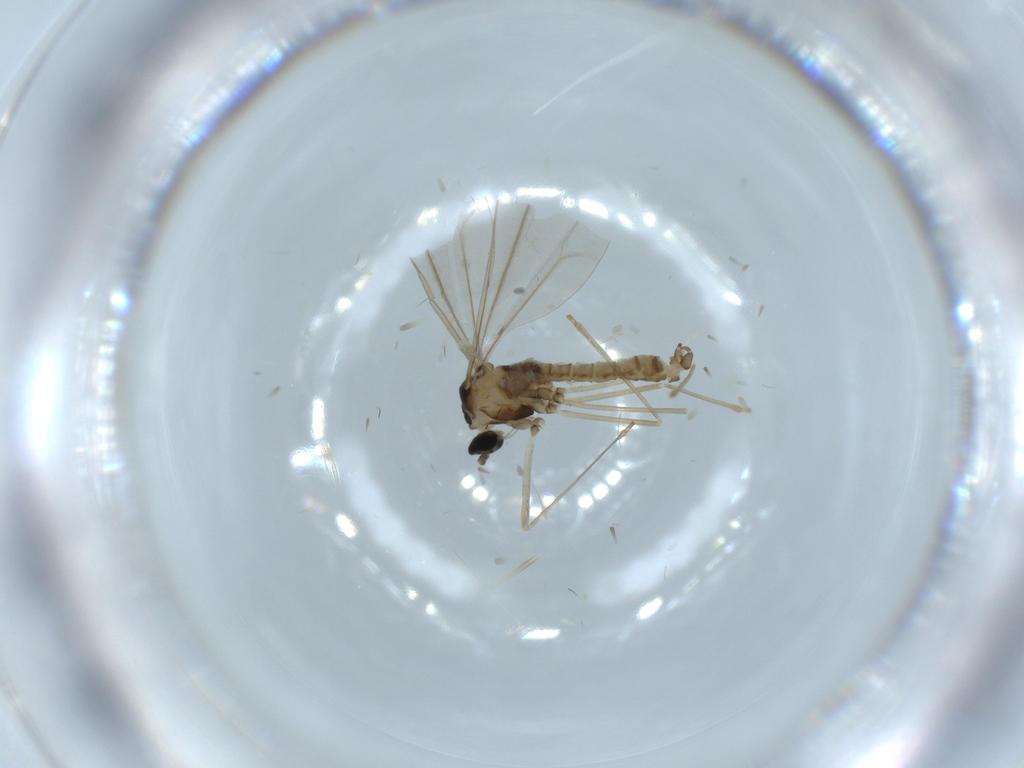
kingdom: Animalia
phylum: Arthropoda
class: Insecta
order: Diptera
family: Cecidomyiidae
